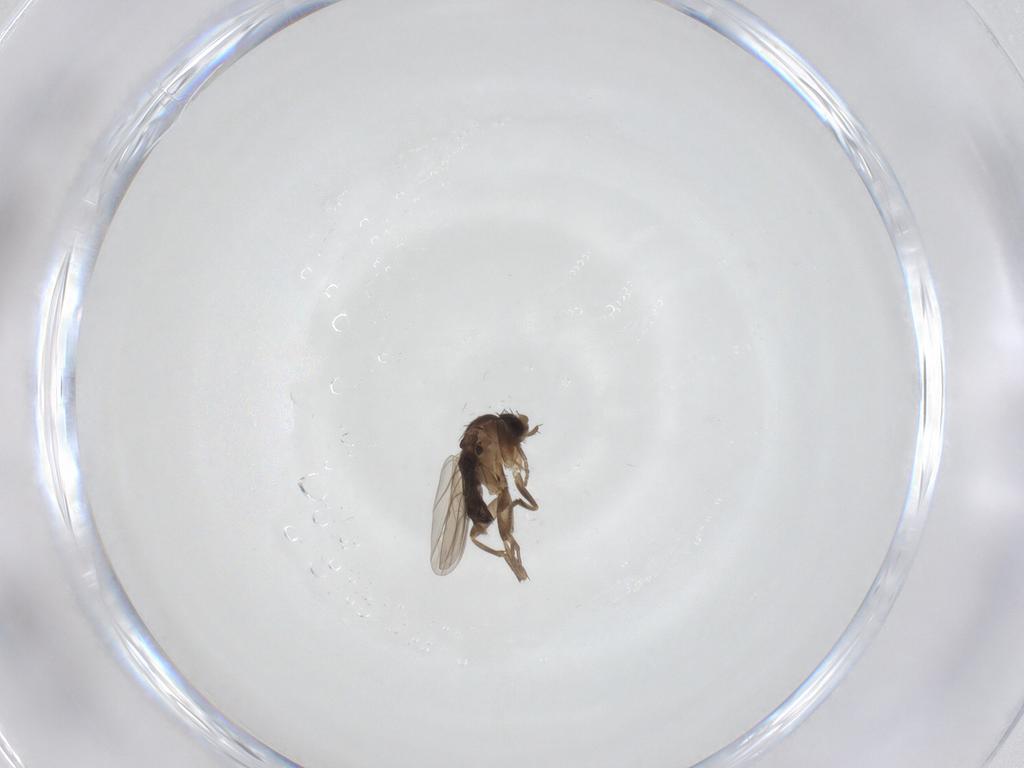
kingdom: Animalia
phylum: Arthropoda
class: Insecta
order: Diptera
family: Phoridae
